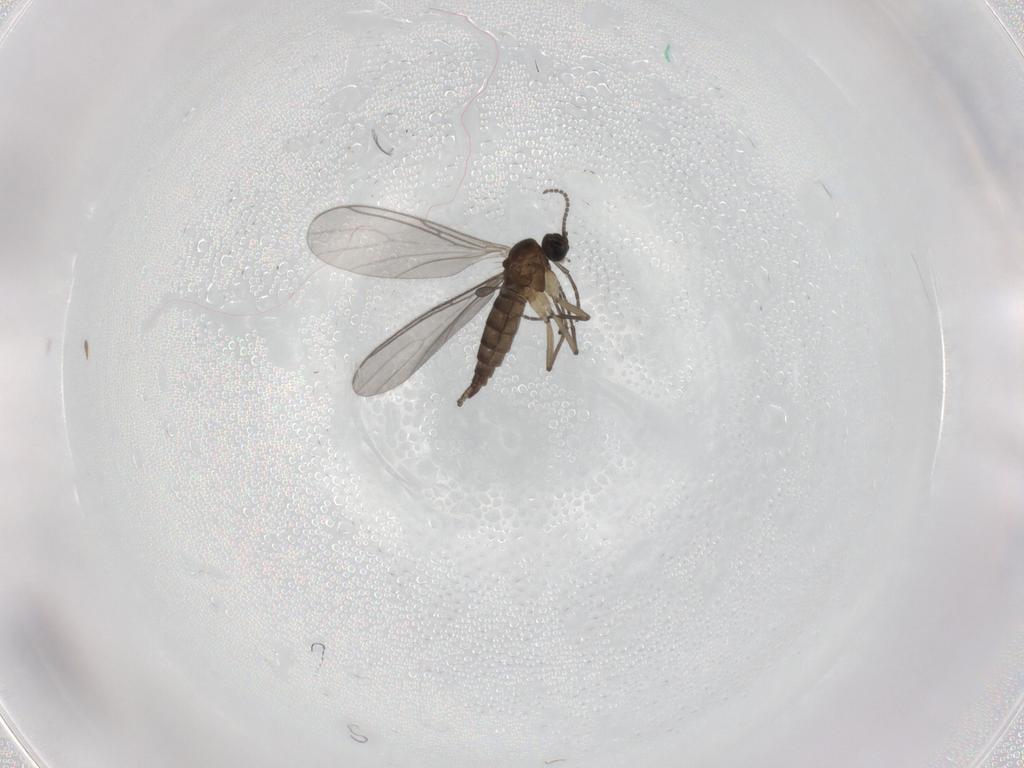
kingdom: Animalia
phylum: Arthropoda
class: Insecta
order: Diptera
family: Sciaridae
